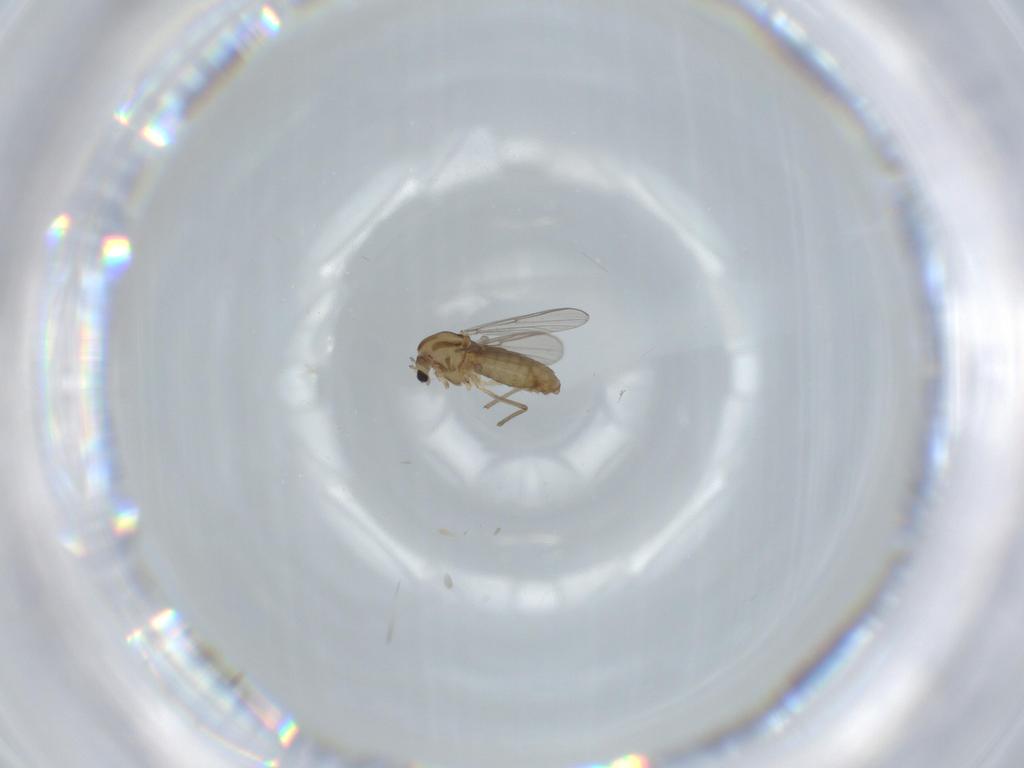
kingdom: Animalia
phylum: Arthropoda
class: Insecta
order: Diptera
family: Chironomidae
